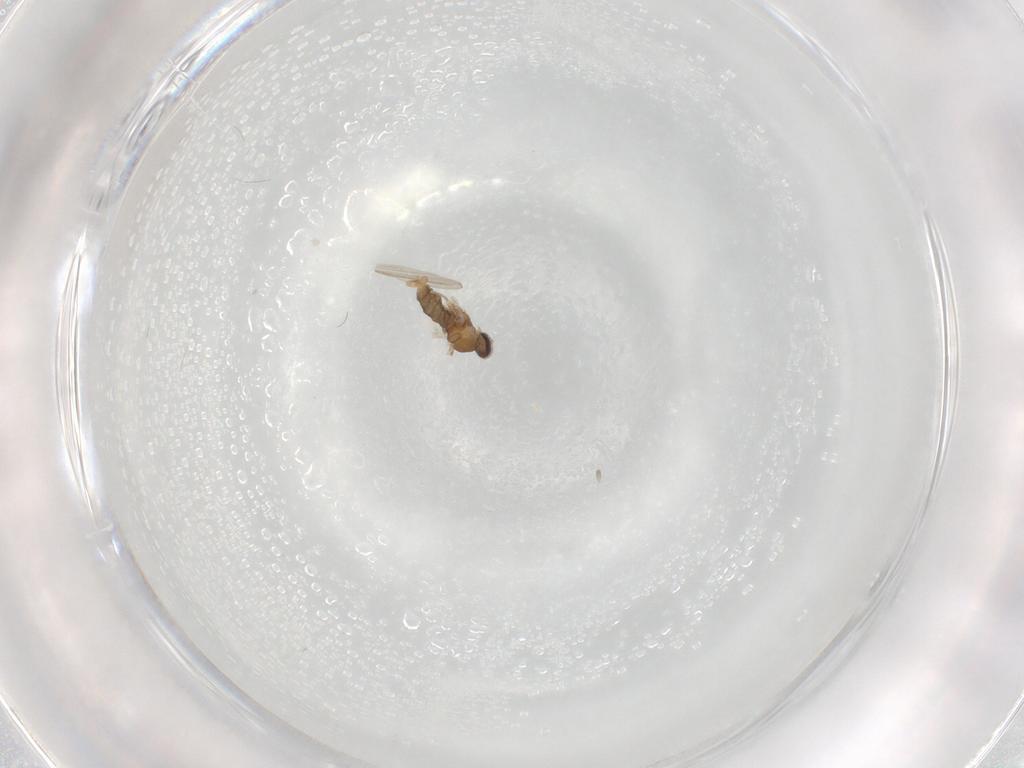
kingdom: Animalia
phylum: Arthropoda
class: Insecta
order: Diptera
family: Cecidomyiidae
